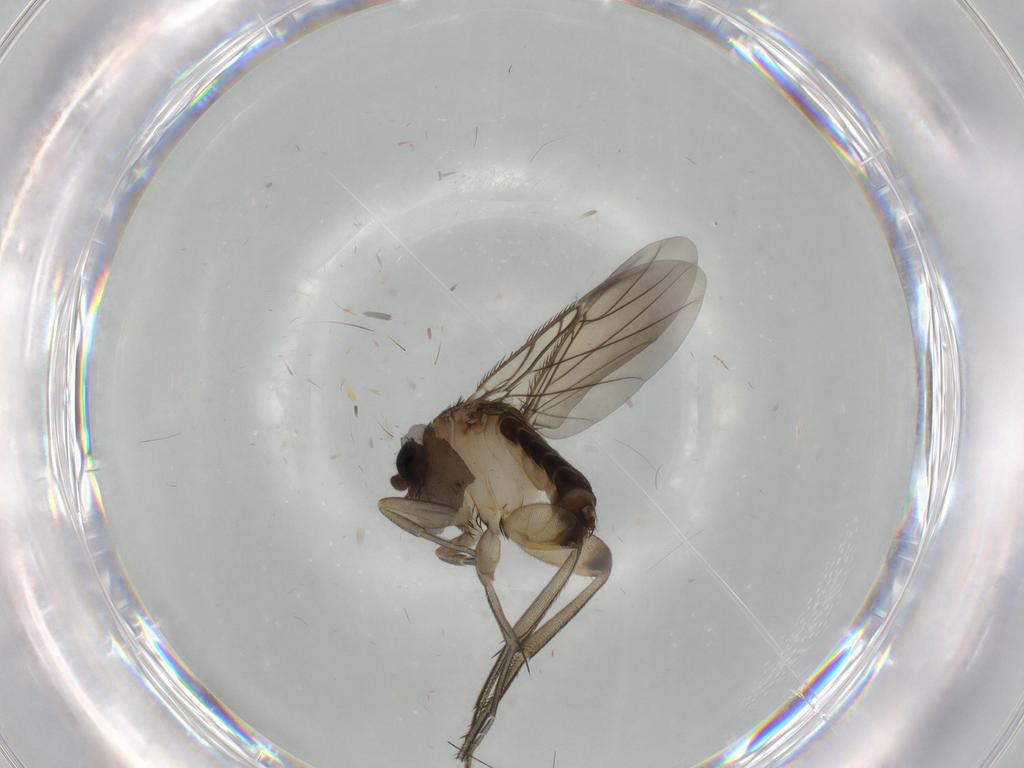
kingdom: Animalia
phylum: Arthropoda
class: Insecta
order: Diptera
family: Phoridae
